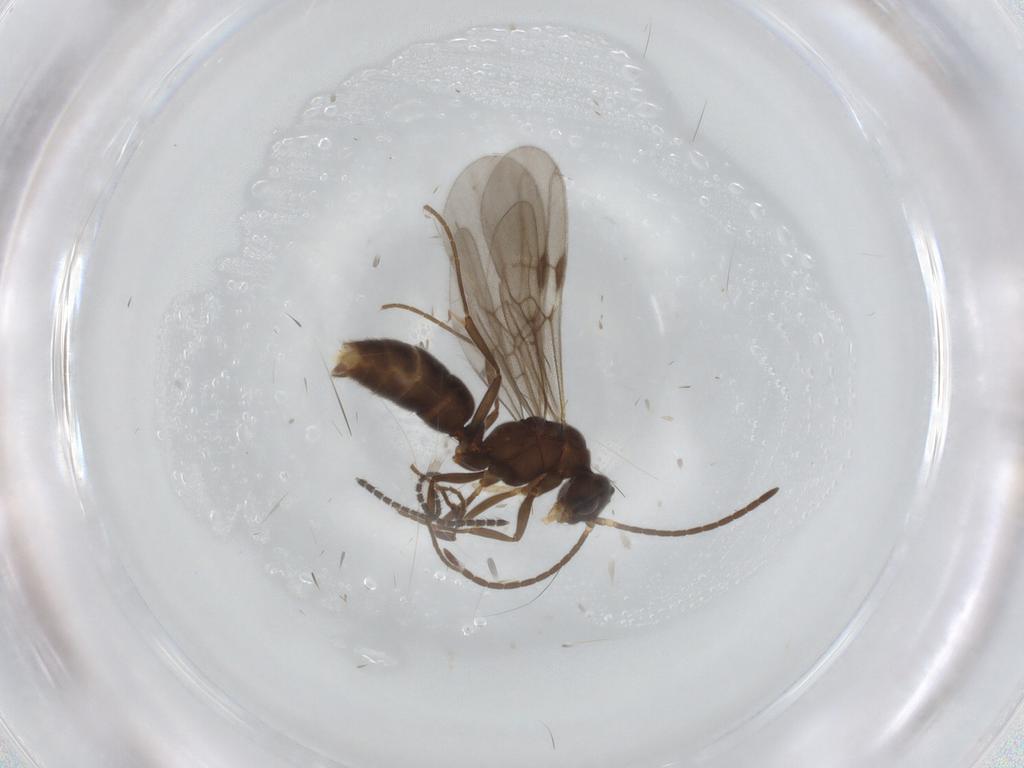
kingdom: Animalia
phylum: Arthropoda
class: Insecta
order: Hymenoptera
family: Formicidae
